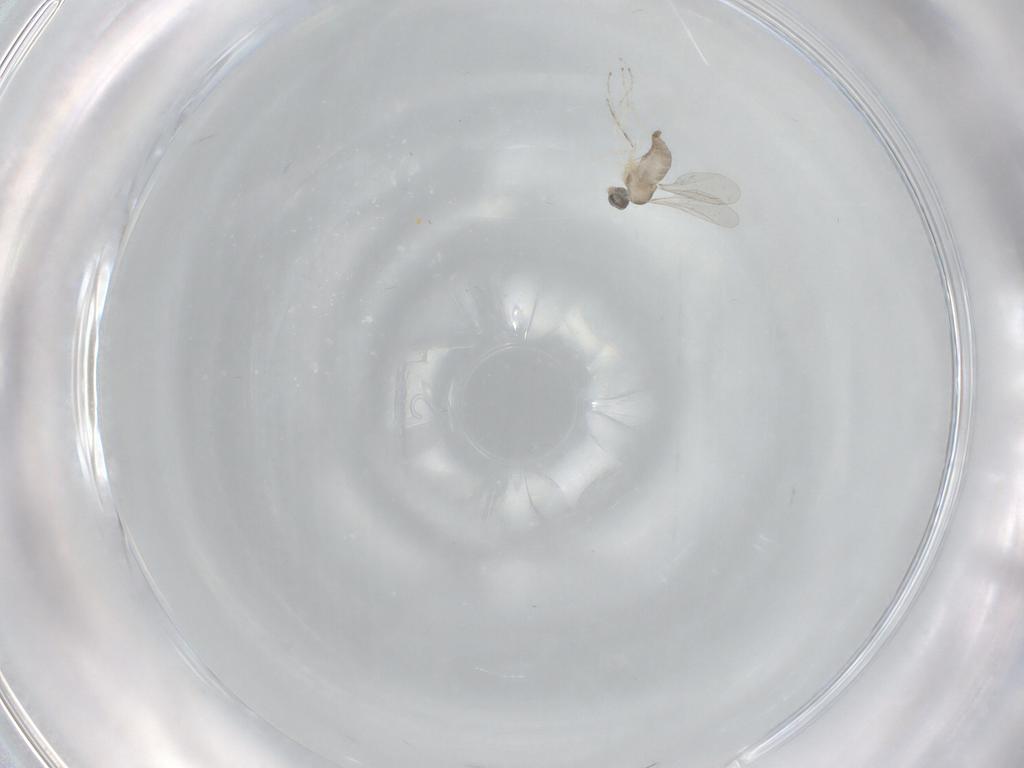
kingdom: Animalia
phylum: Arthropoda
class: Insecta
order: Diptera
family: Cecidomyiidae
